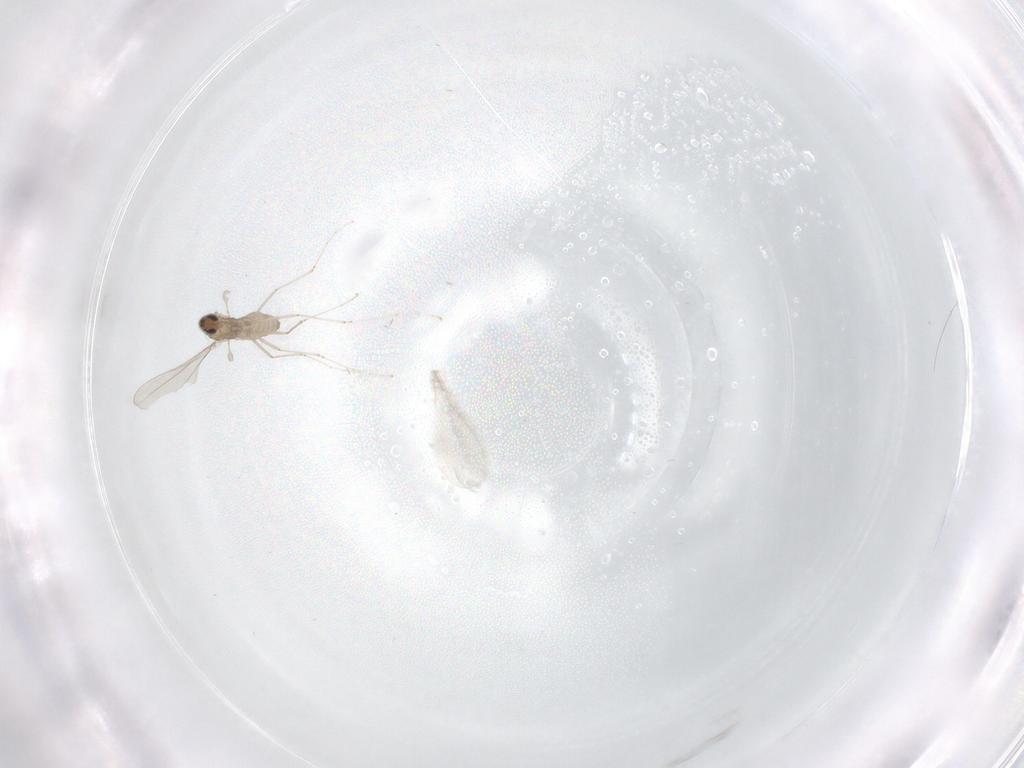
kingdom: Animalia
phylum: Arthropoda
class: Insecta
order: Diptera
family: Cecidomyiidae
